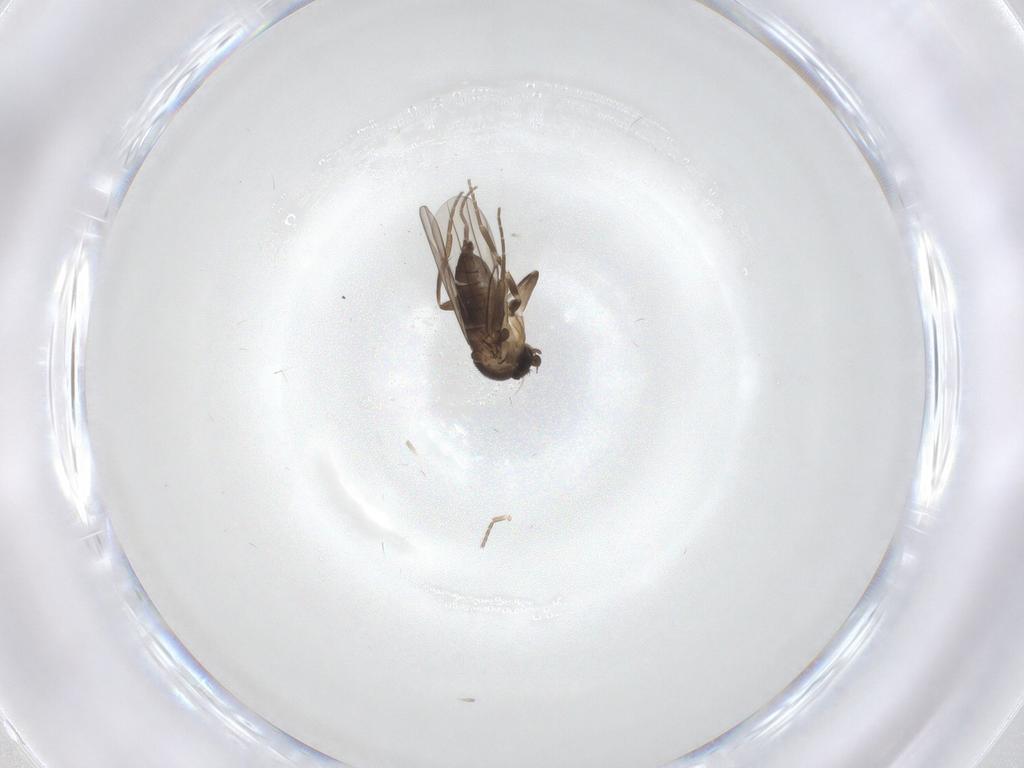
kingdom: Animalia
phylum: Arthropoda
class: Insecta
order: Diptera
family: Phoridae
